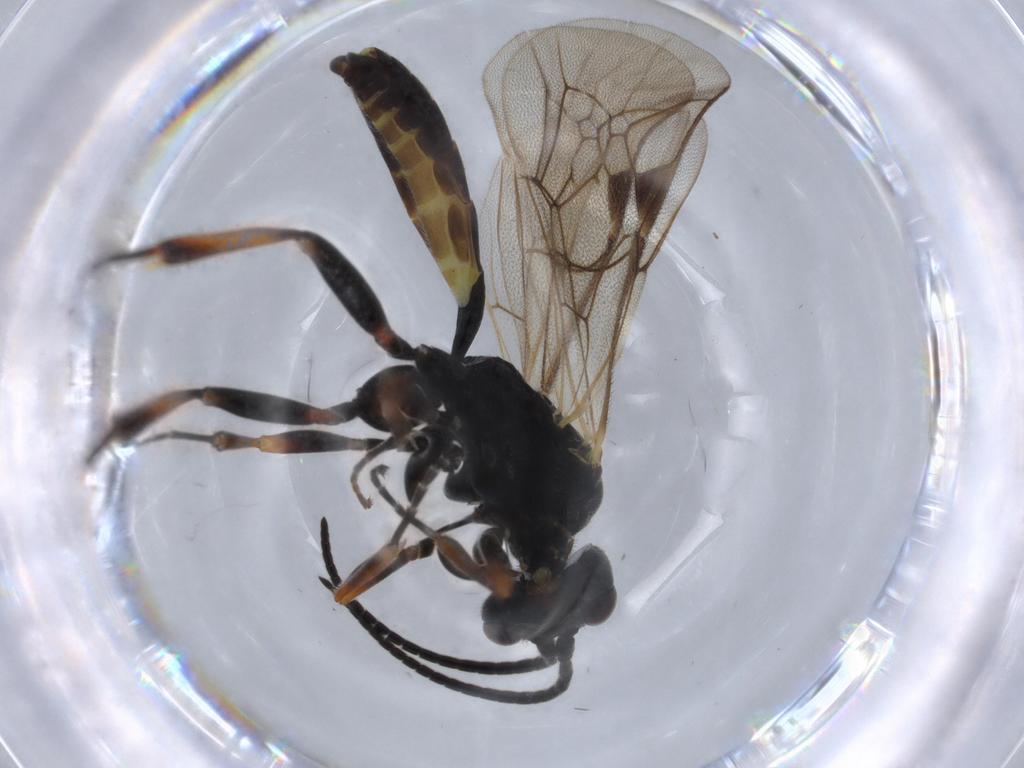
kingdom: Animalia
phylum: Arthropoda
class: Insecta
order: Hymenoptera
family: Ichneumonidae
